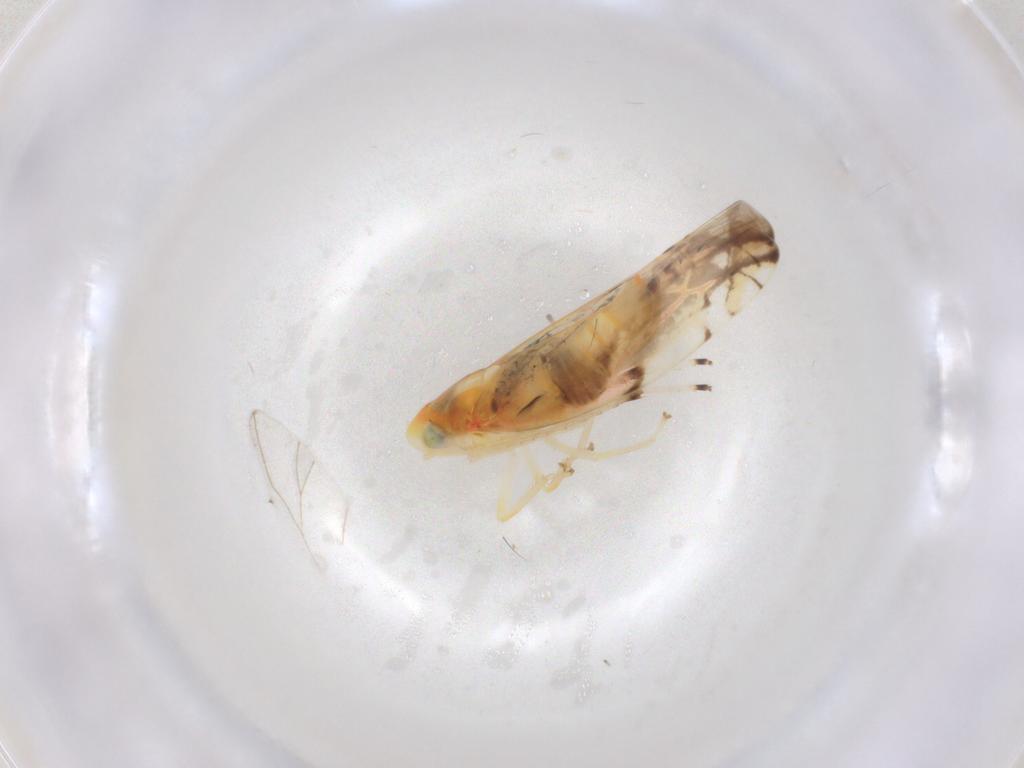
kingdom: Animalia
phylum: Arthropoda
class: Insecta
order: Hemiptera
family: Cicadellidae
